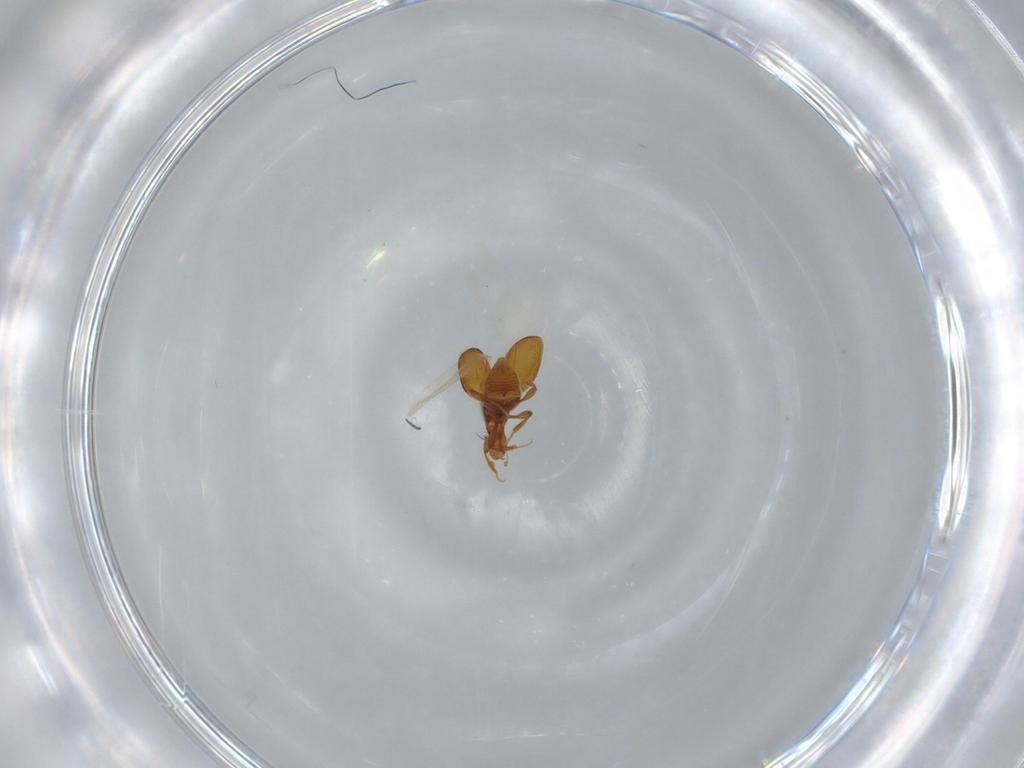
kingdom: Animalia
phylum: Arthropoda
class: Insecta
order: Coleoptera
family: Staphylinidae
